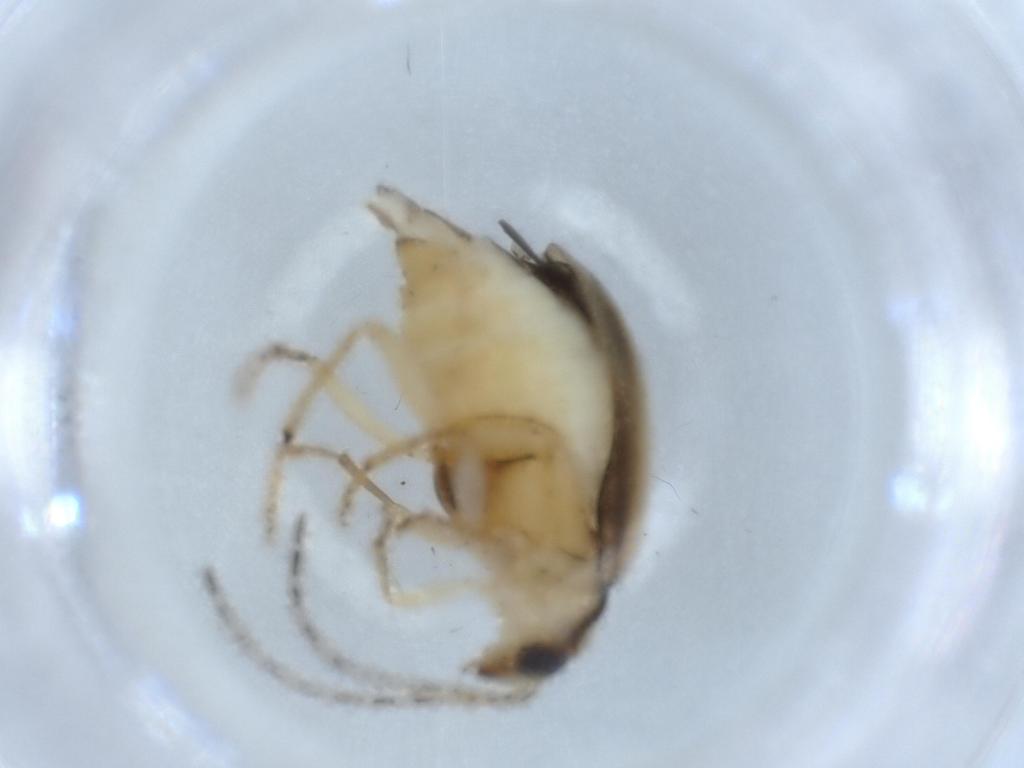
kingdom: Animalia
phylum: Arthropoda
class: Insecta
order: Coleoptera
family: Chrysomelidae
